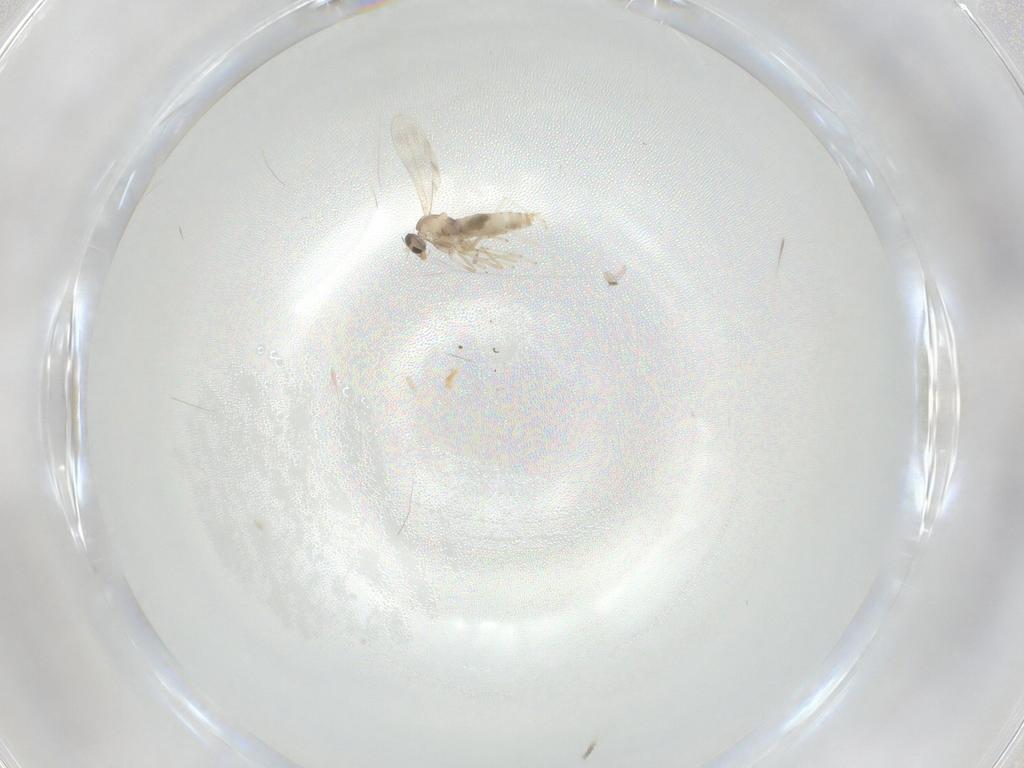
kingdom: Animalia
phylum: Arthropoda
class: Insecta
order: Diptera
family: Cecidomyiidae
